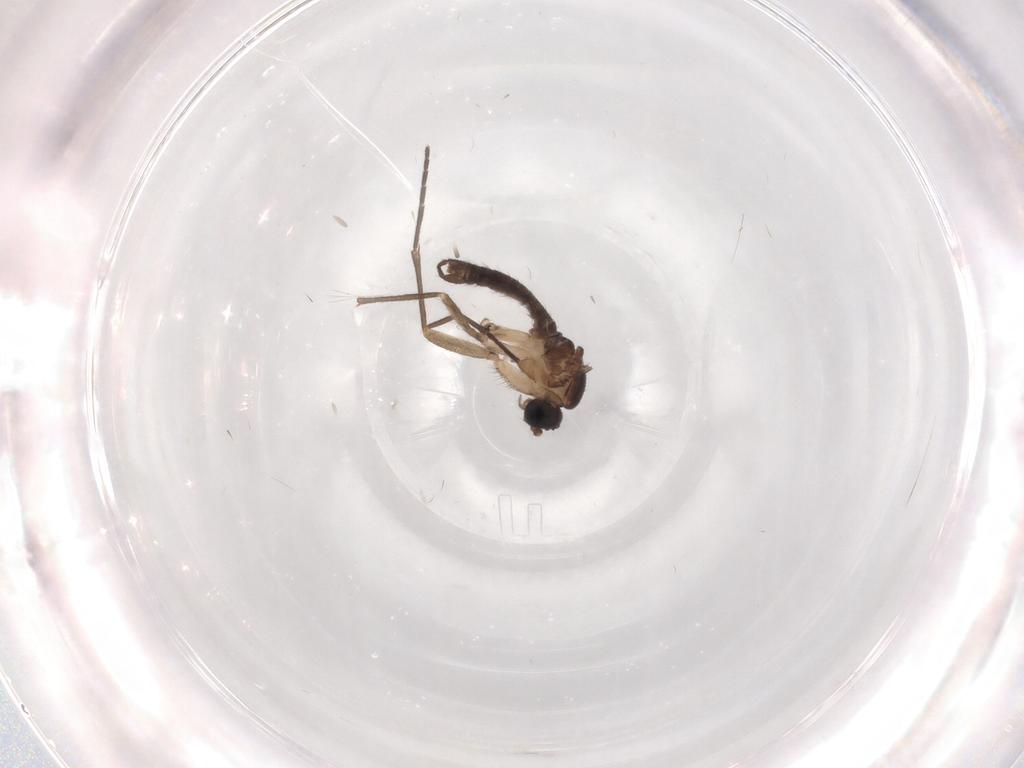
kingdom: Animalia
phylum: Arthropoda
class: Insecta
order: Diptera
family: Sciaridae
